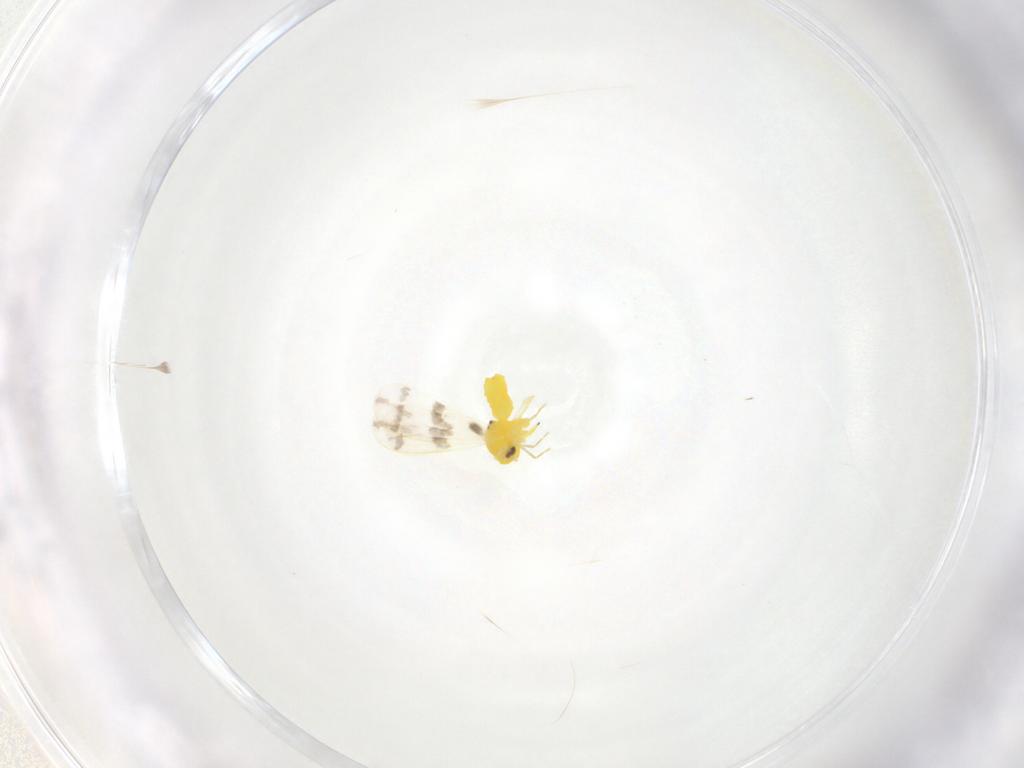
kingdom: Animalia
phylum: Arthropoda
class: Insecta
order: Hemiptera
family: Aleyrodidae
